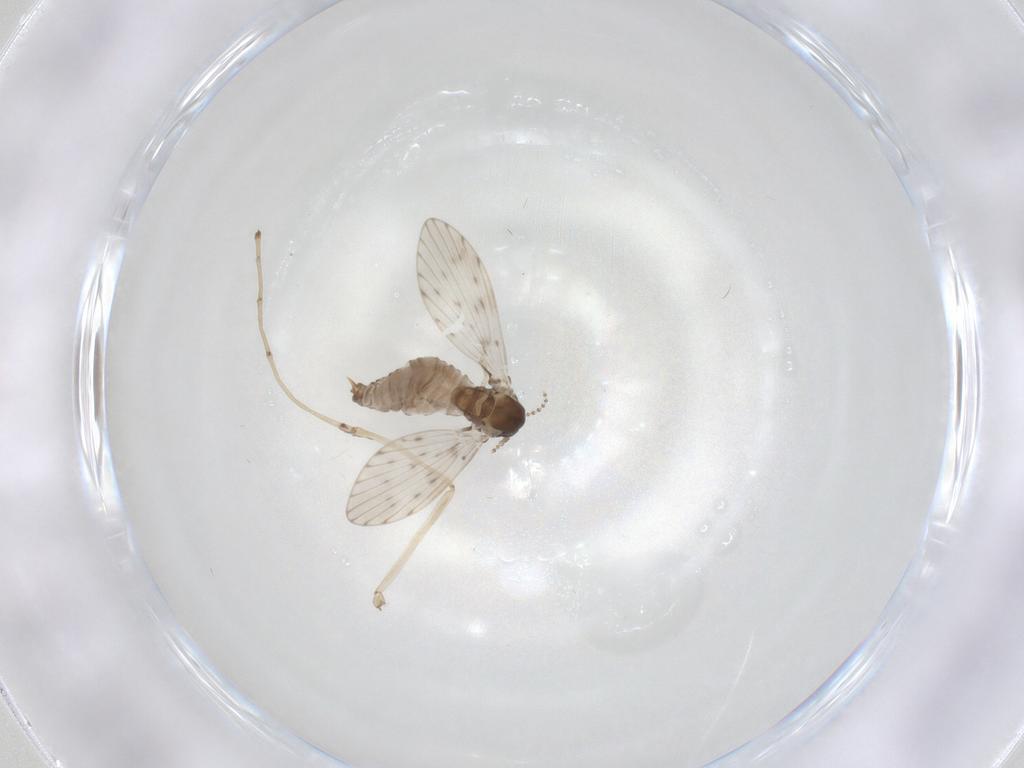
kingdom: Animalia
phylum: Arthropoda
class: Insecta
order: Diptera
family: Psychodidae
